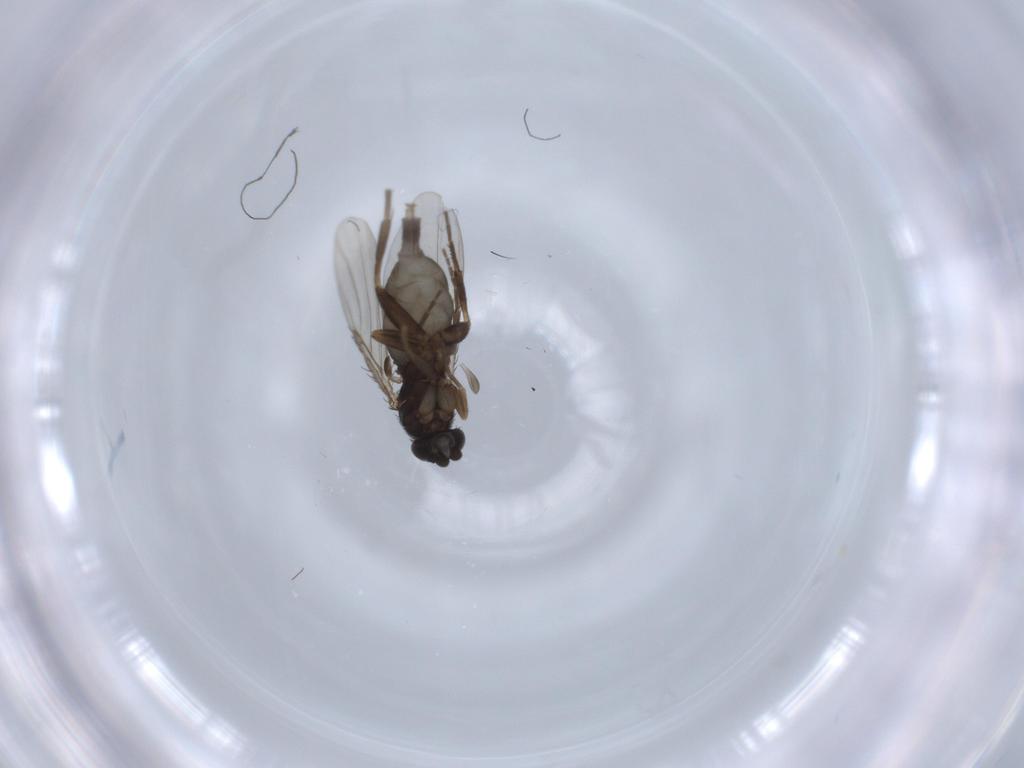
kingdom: Animalia
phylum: Arthropoda
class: Insecta
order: Diptera
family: Phoridae
